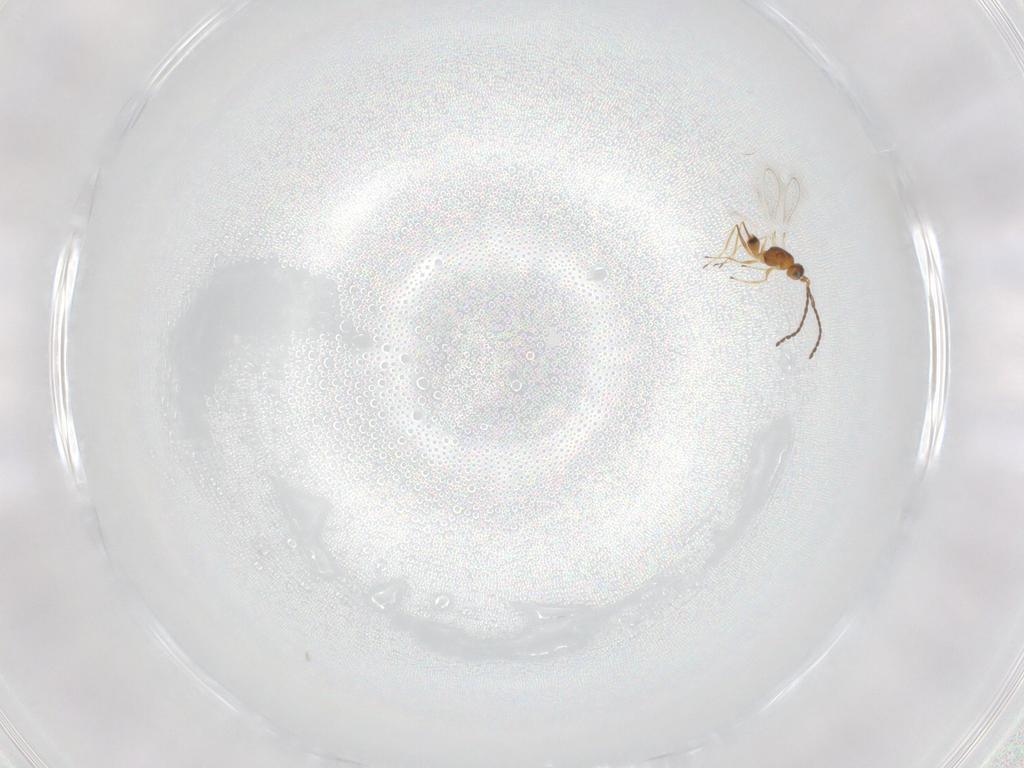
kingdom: Animalia
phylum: Arthropoda
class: Insecta
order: Hymenoptera
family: Mymaridae
